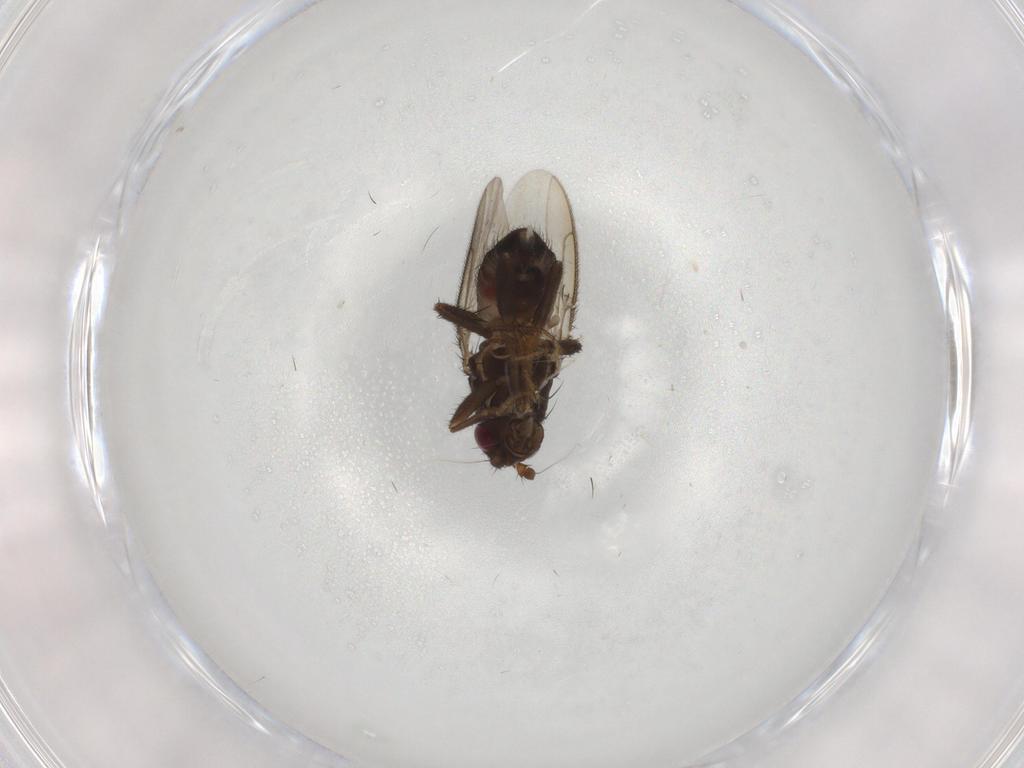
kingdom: Animalia
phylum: Arthropoda
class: Insecta
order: Diptera
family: Sphaeroceridae
